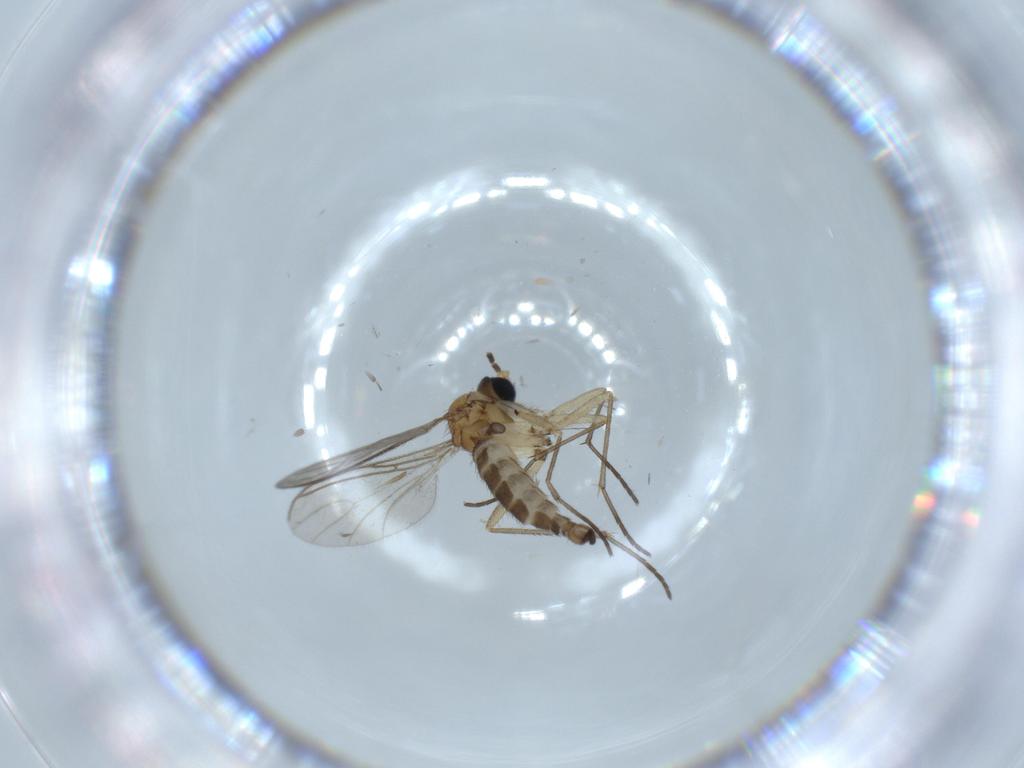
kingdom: Animalia
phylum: Arthropoda
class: Insecta
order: Diptera
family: Sciaridae
